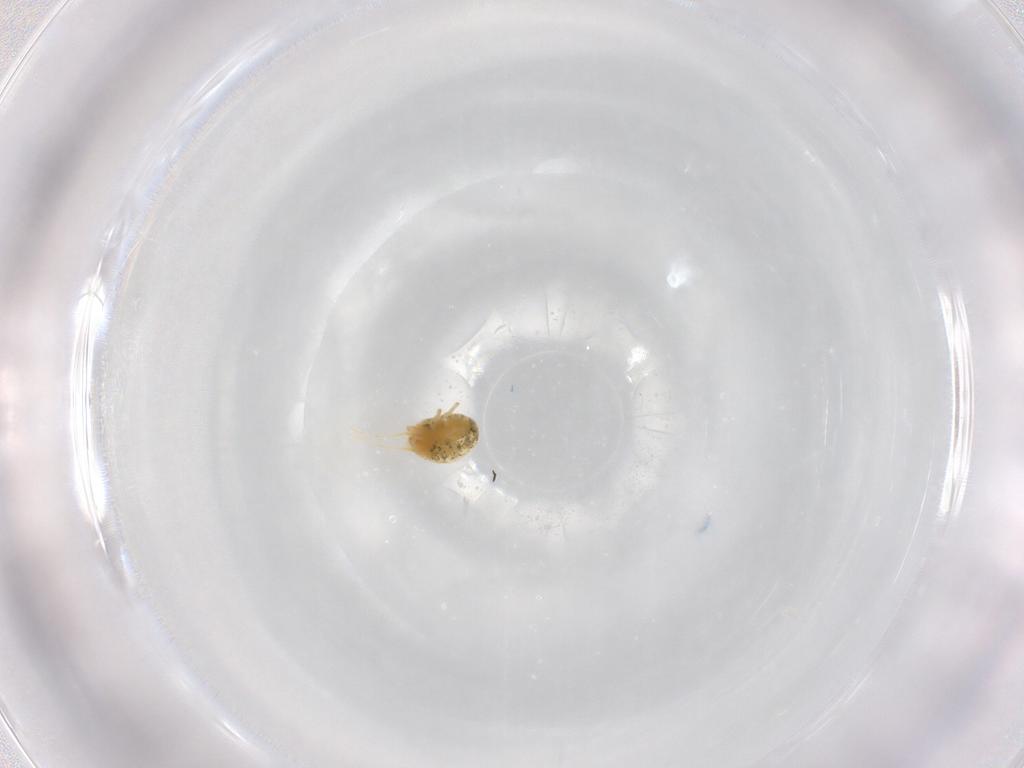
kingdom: Animalia
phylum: Arthropoda
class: Arachnida
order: Trombidiformes
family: Tetranychidae
